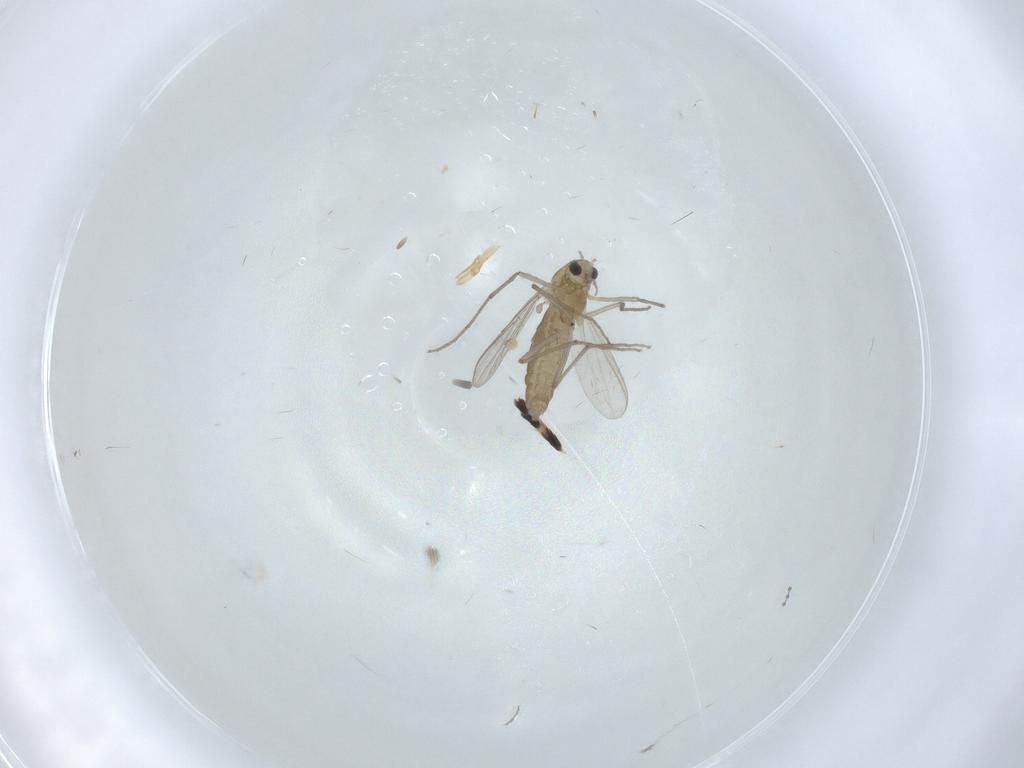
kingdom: Animalia
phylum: Arthropoda
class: Insecta
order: Diptera
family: Chironomidae
